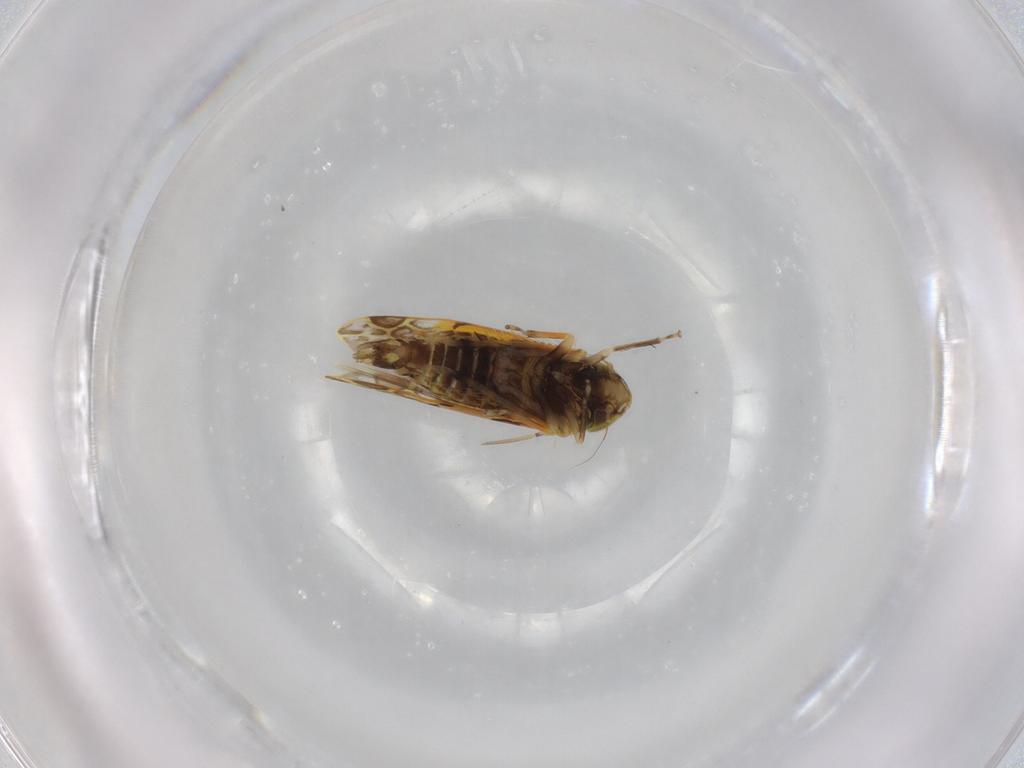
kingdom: Animalia
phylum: Arthropoda
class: Insecta
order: Hemiptera
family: Cicadellidae
